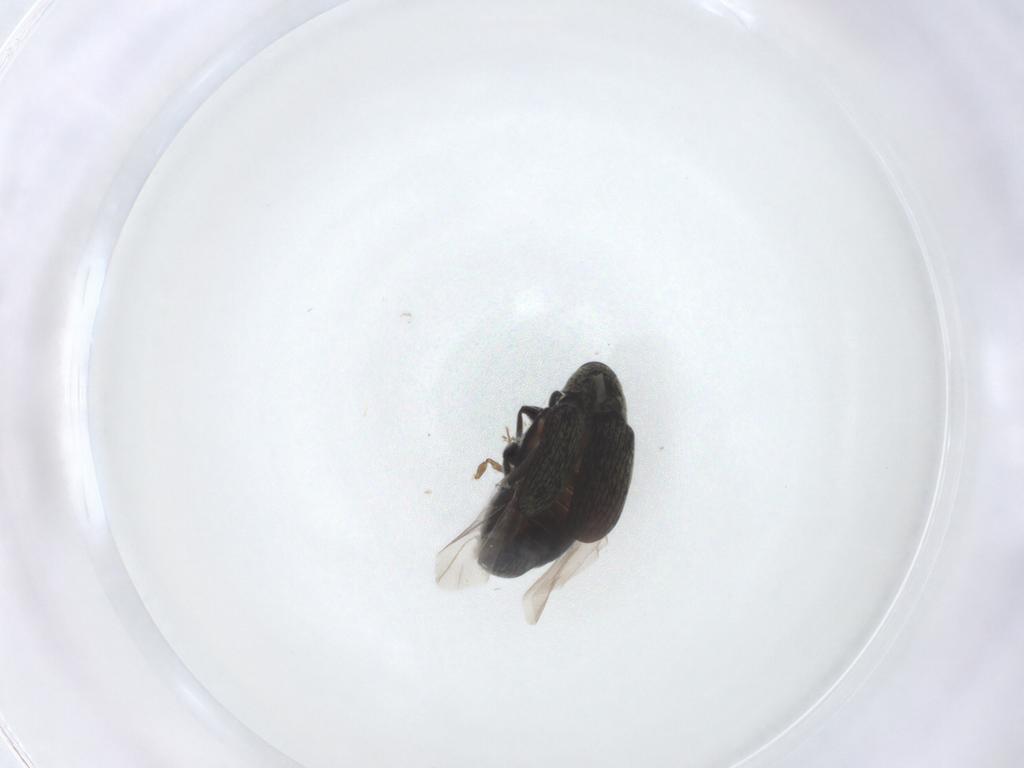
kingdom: Animalia
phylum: Arthropoda
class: Insecta
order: Coleoptera
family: Chrysomelidae
